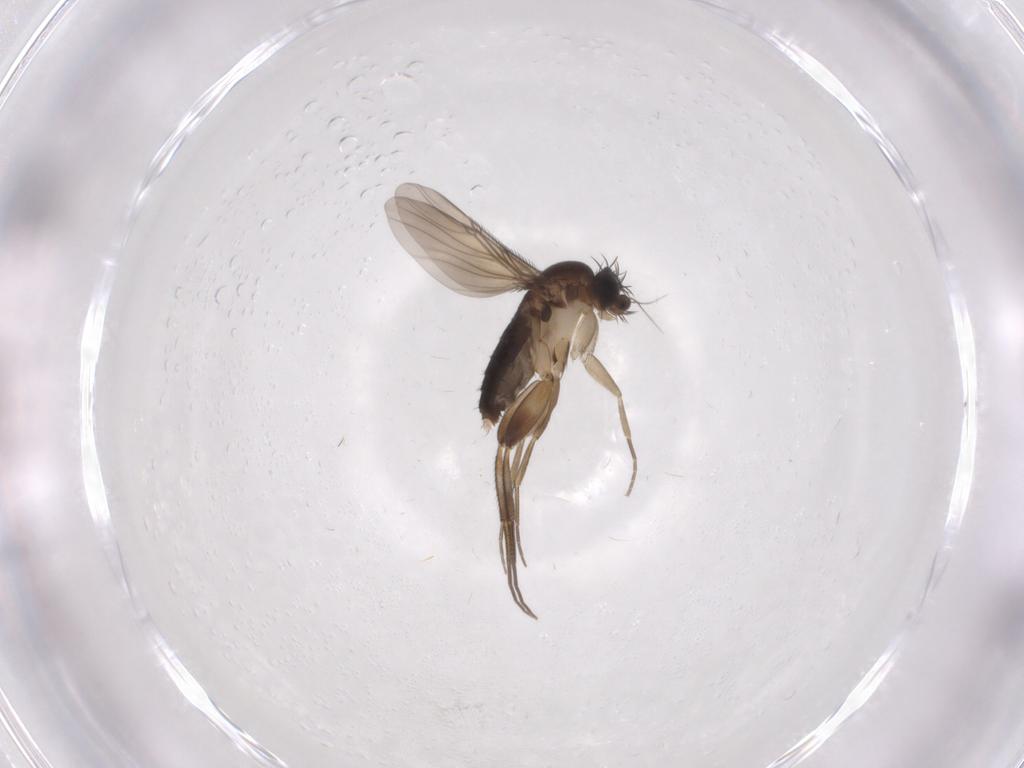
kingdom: Animalia
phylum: Arthropoda
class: Insecta
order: Diptera
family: Phoridae
